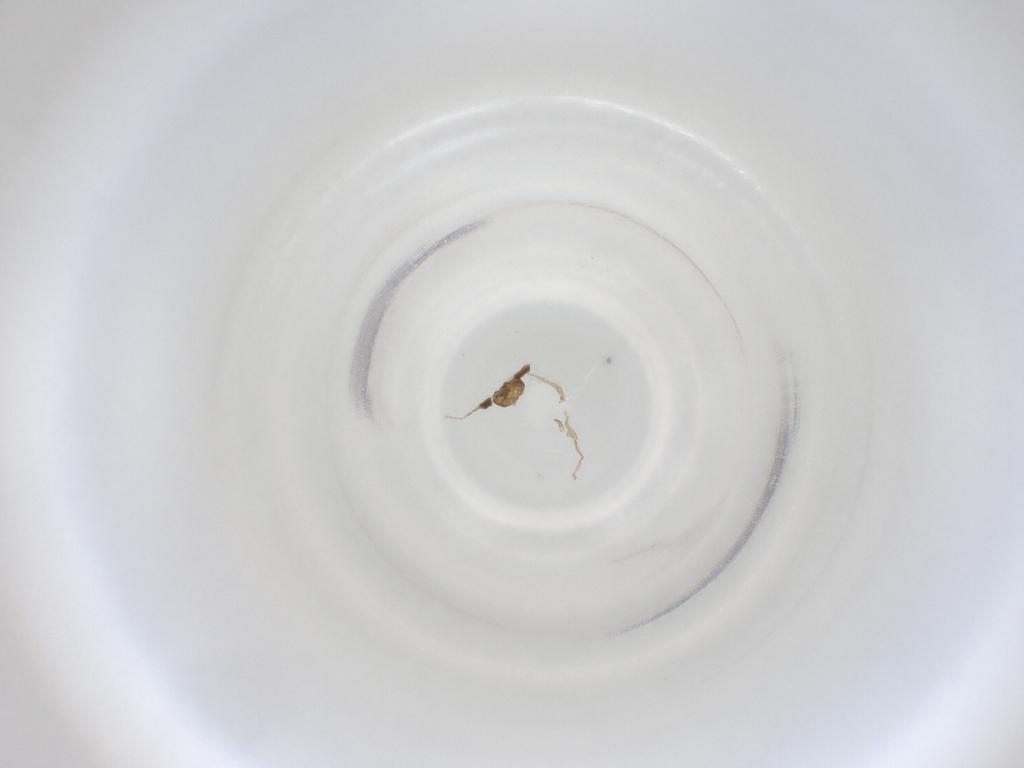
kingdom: Animalia
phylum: Arthropoda
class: Insecta
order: Diptera
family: Cecidomyiidae
